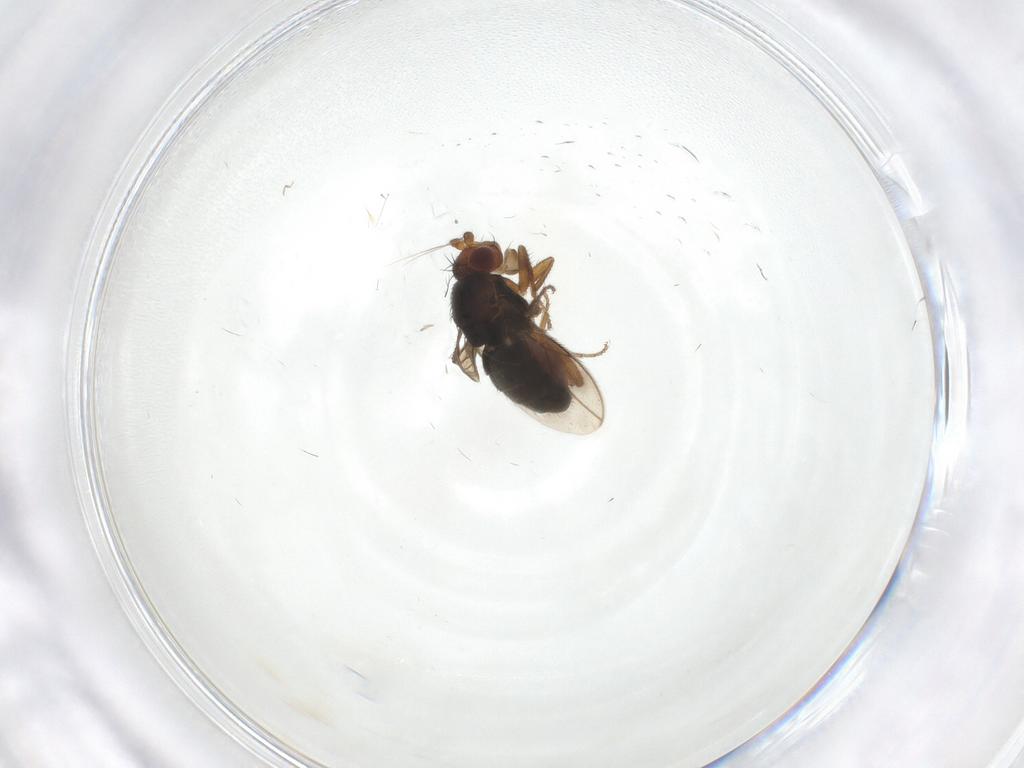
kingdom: Animalia
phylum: Arthropoda
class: Insecta
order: Diptera
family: Sphaeroceridae
